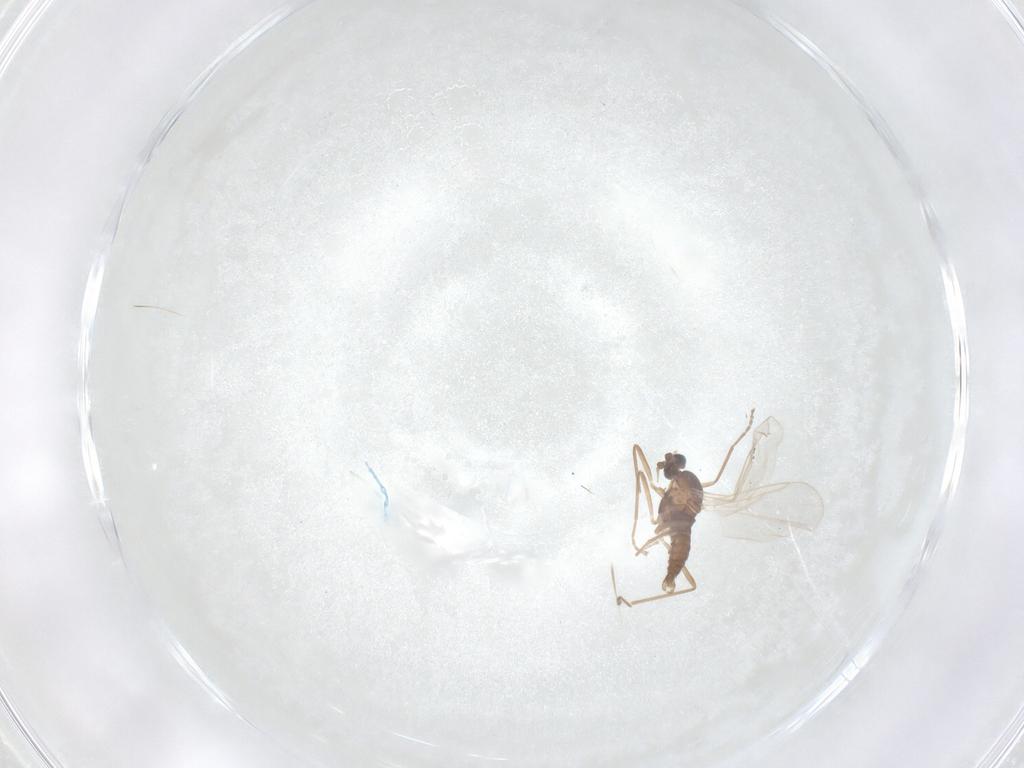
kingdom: Animalia
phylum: Arthropoda
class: Insecta
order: Diptera
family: Cecidomyiidae
